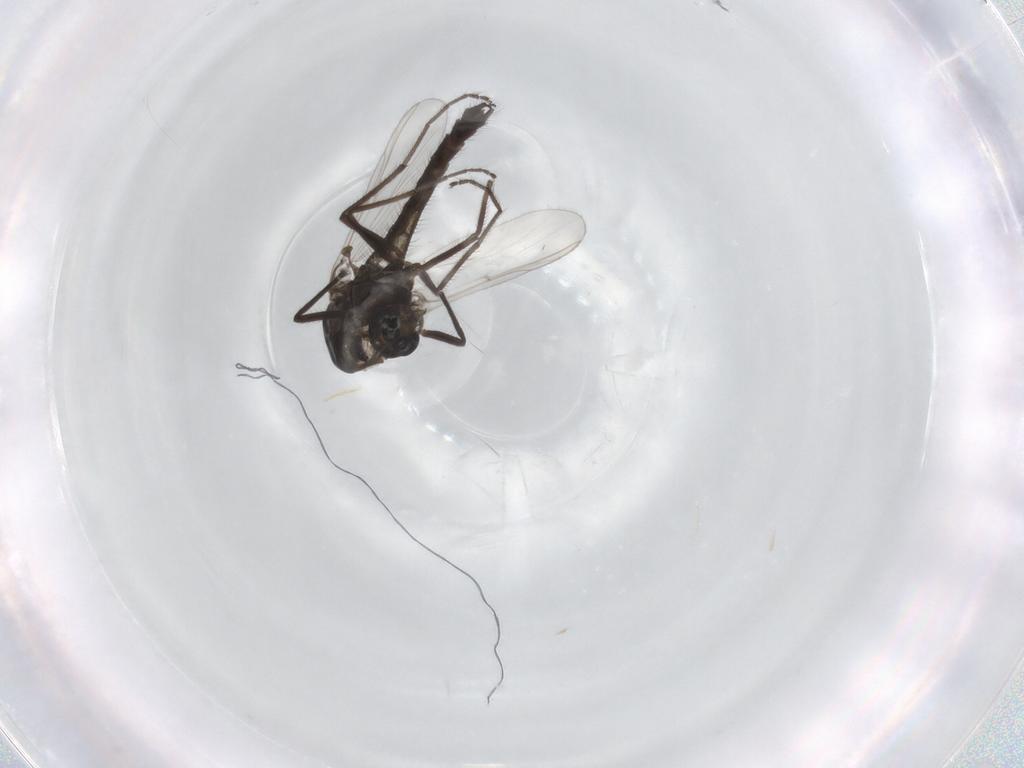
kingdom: Animalia
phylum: Arthropoda
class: Insecta
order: Diptera
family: Chironomidae
